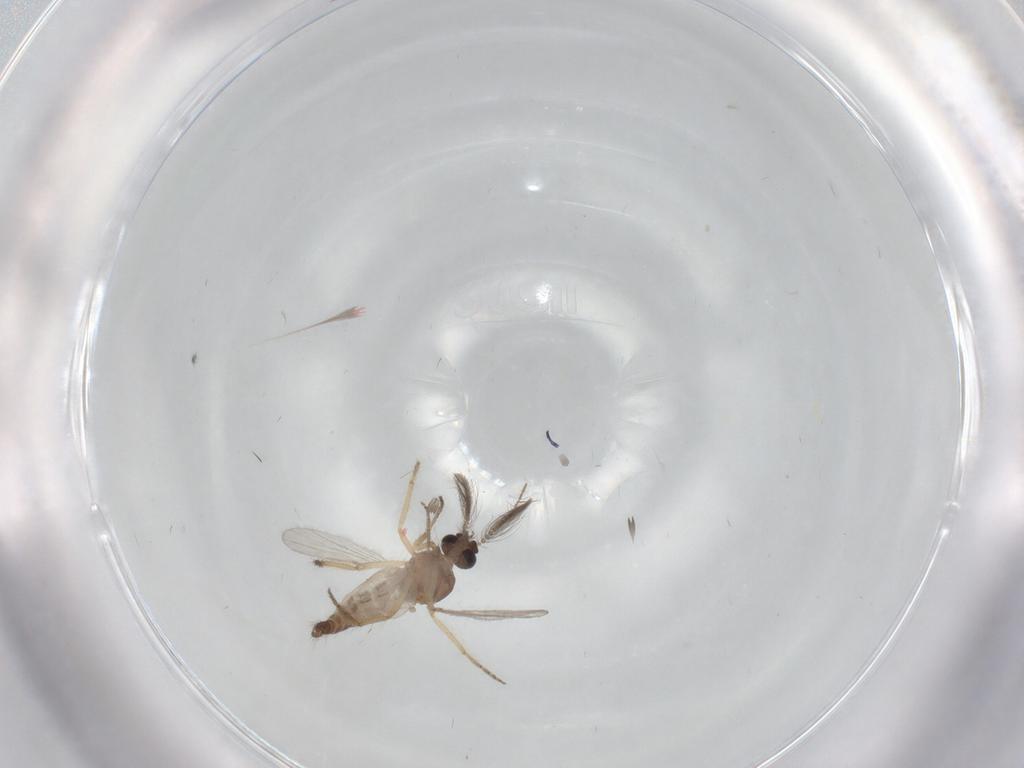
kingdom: Animalia
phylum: Arthropoda
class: Insecta
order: Diptera
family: Ceratopogonidae
